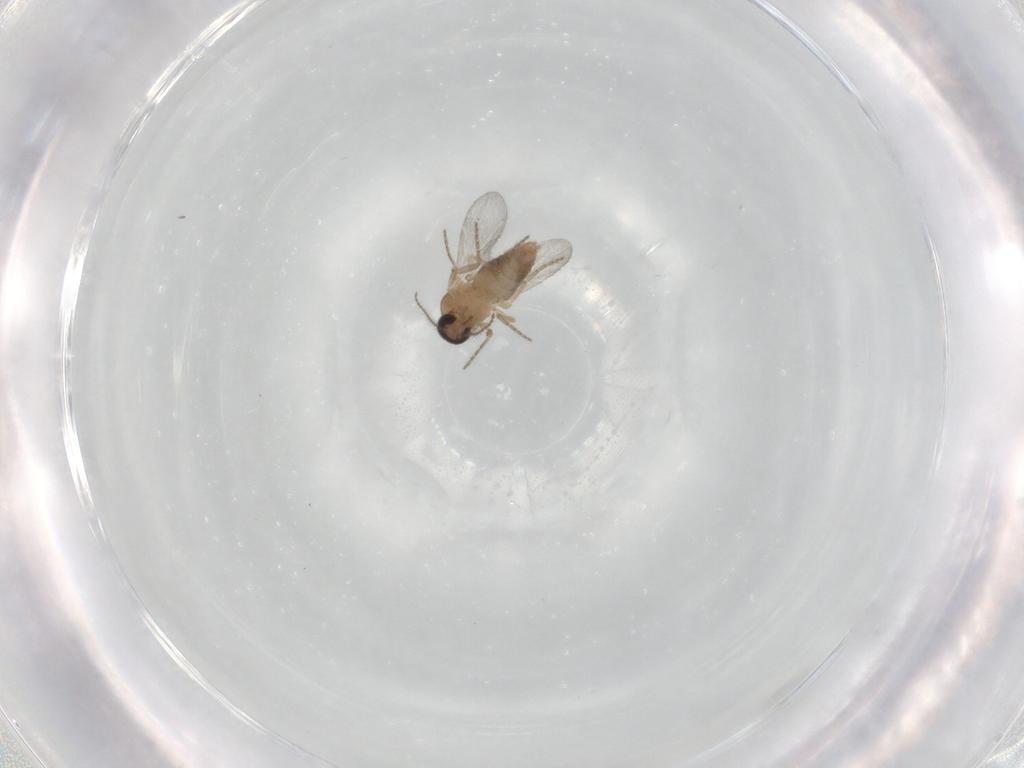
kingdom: Animalia
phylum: Arthropoda
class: Insecta
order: Diptera
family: Ceratopogonidae
